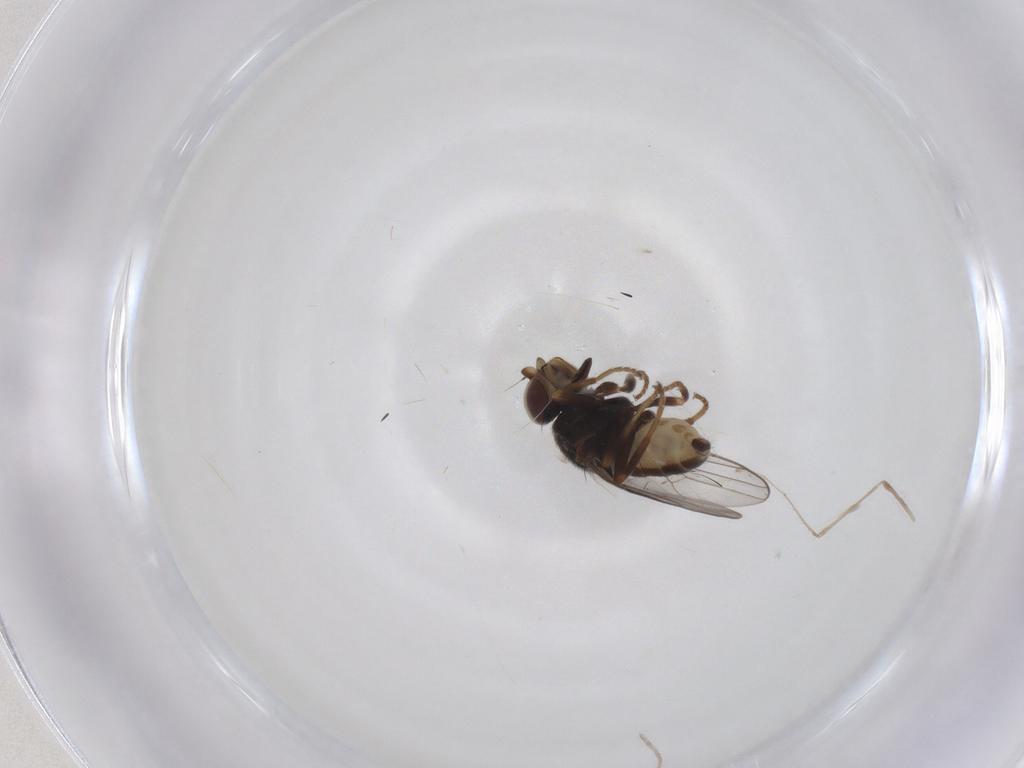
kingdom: Animalia
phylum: Arthropoda
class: Insecta
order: Diptera
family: Chloropidae
